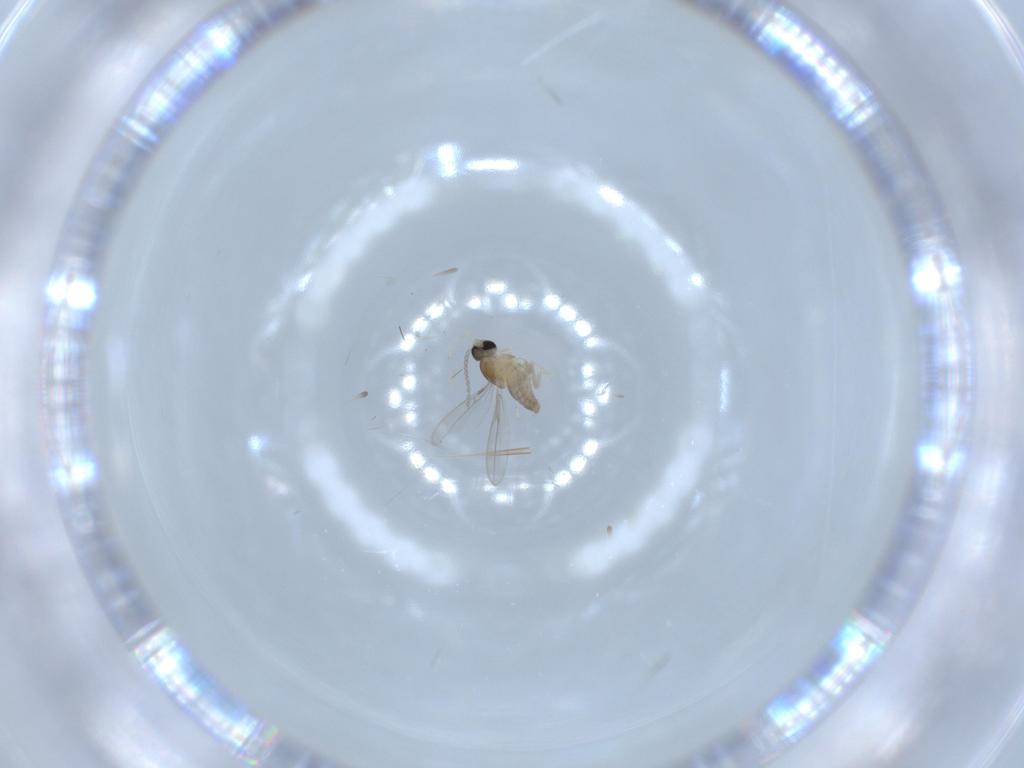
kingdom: Animalia
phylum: Arthropoda
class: Insecta
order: Diptera
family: Cecidomyiidae
